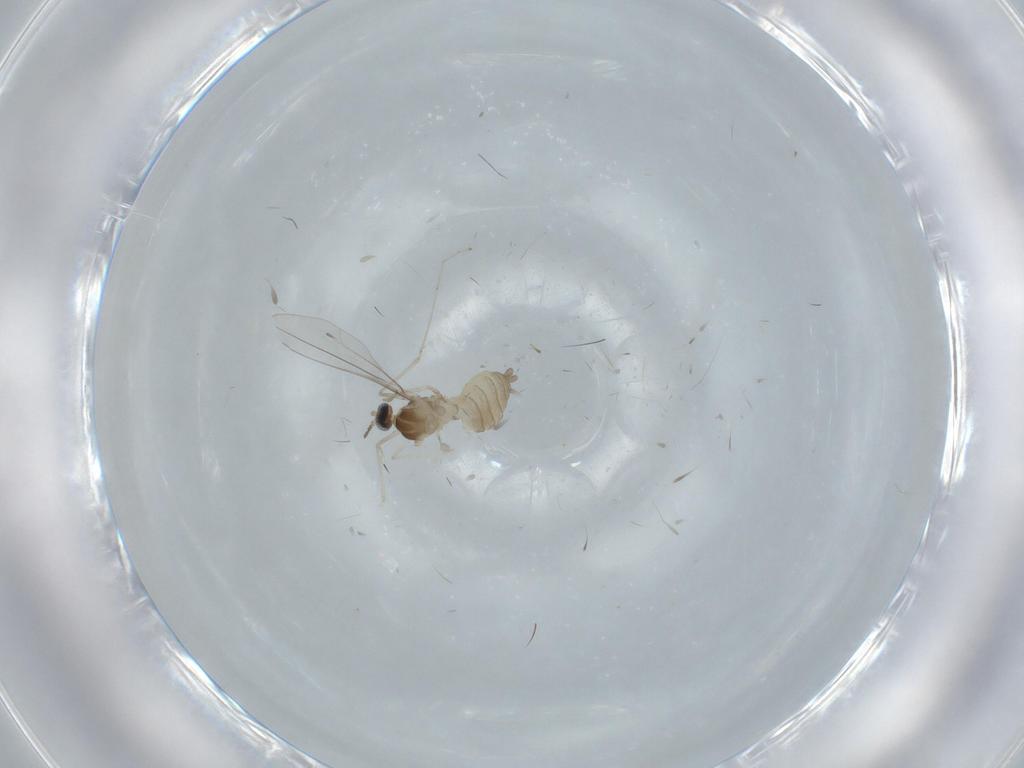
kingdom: Animalia
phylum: Arthropoda
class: Insecta
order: Diptera
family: Cecidomyiidae
